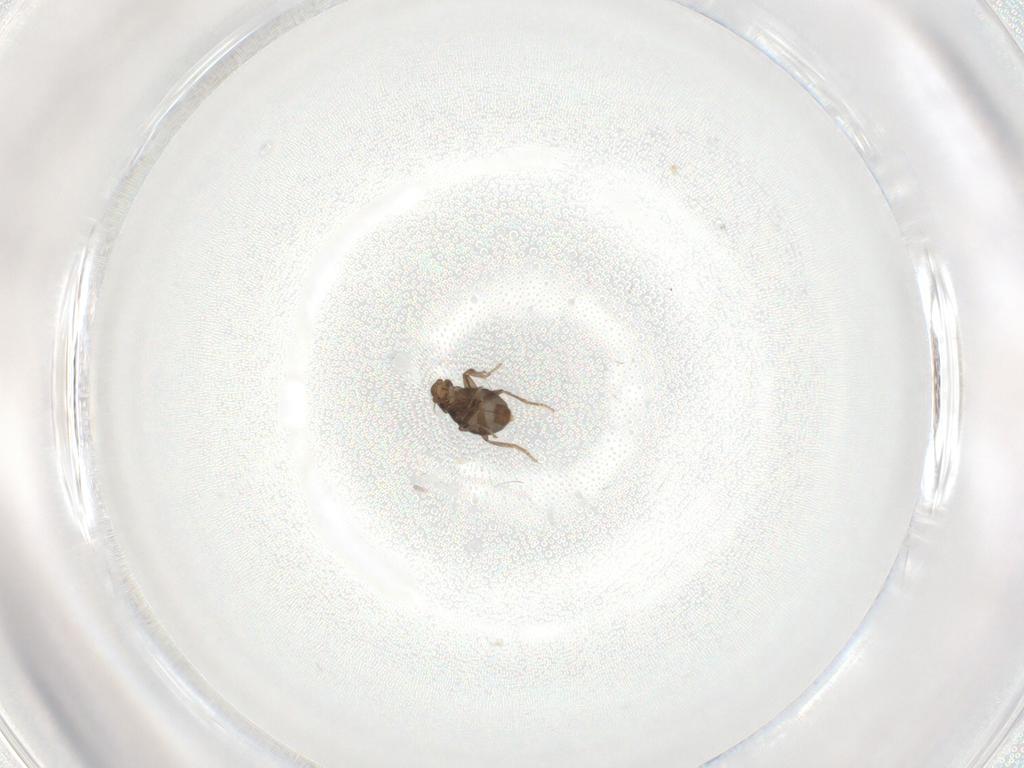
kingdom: Animalia
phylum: Arthropoda
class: Insecta
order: Diptera
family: Phoridae
